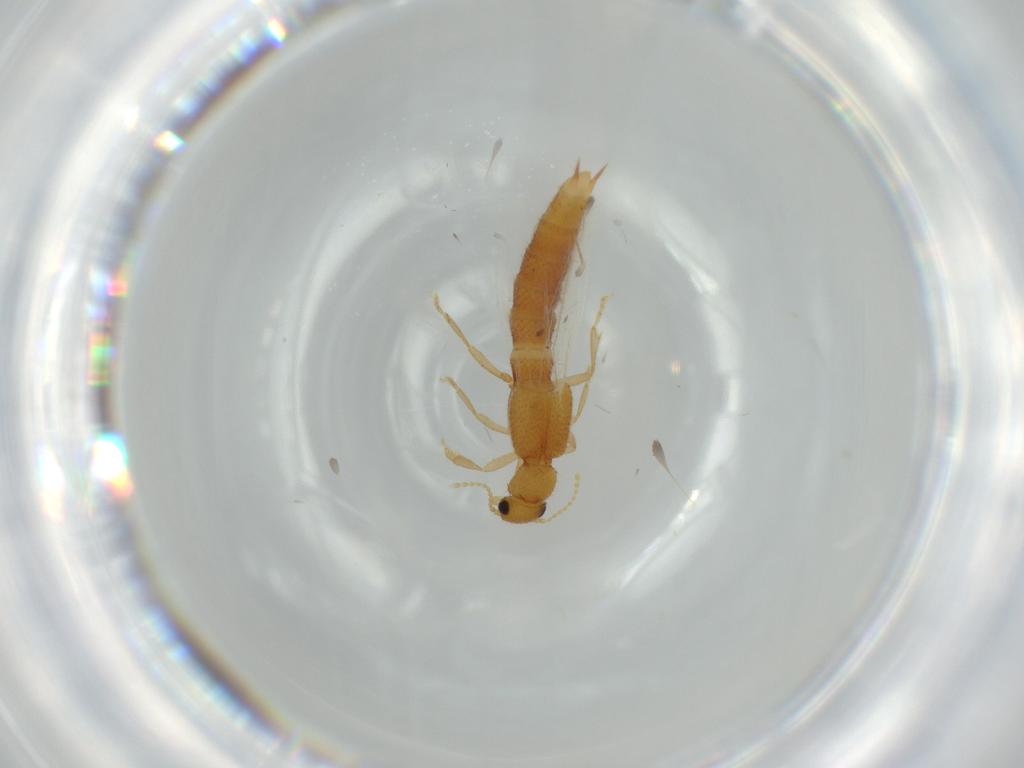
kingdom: Animalia
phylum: Arthropoda
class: Insecta
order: Coleoptera
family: Staphylinidae
